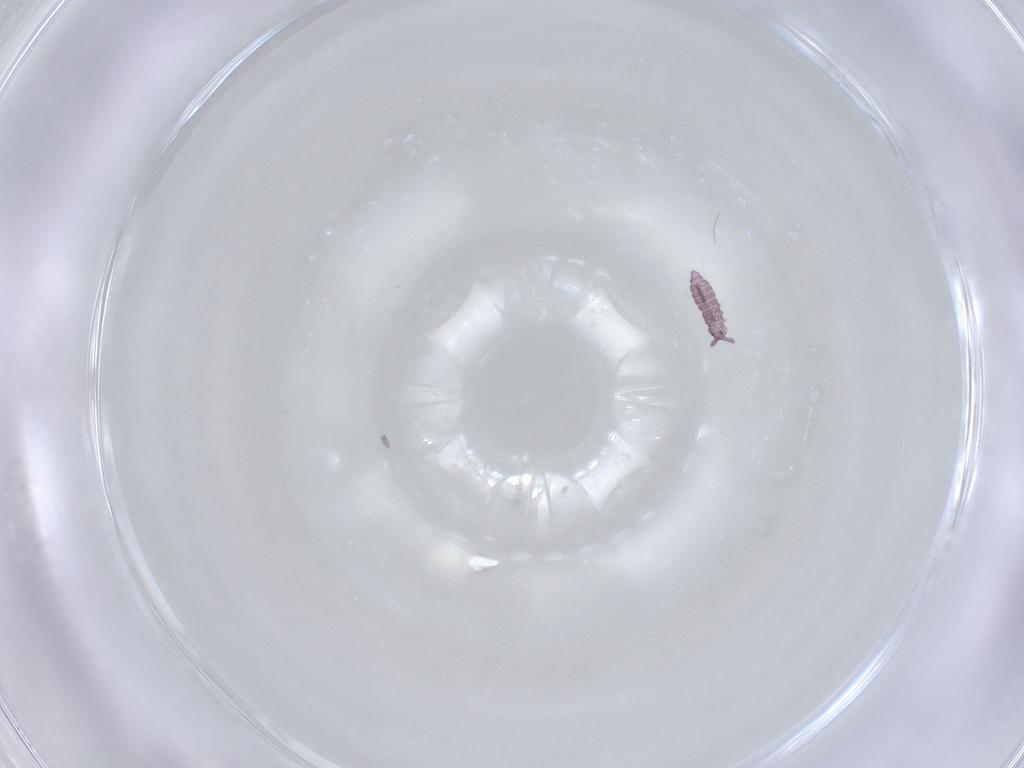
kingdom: Animalia
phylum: Arthropoda
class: Collembola
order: Poduromorpha
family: Hypogastruridae
